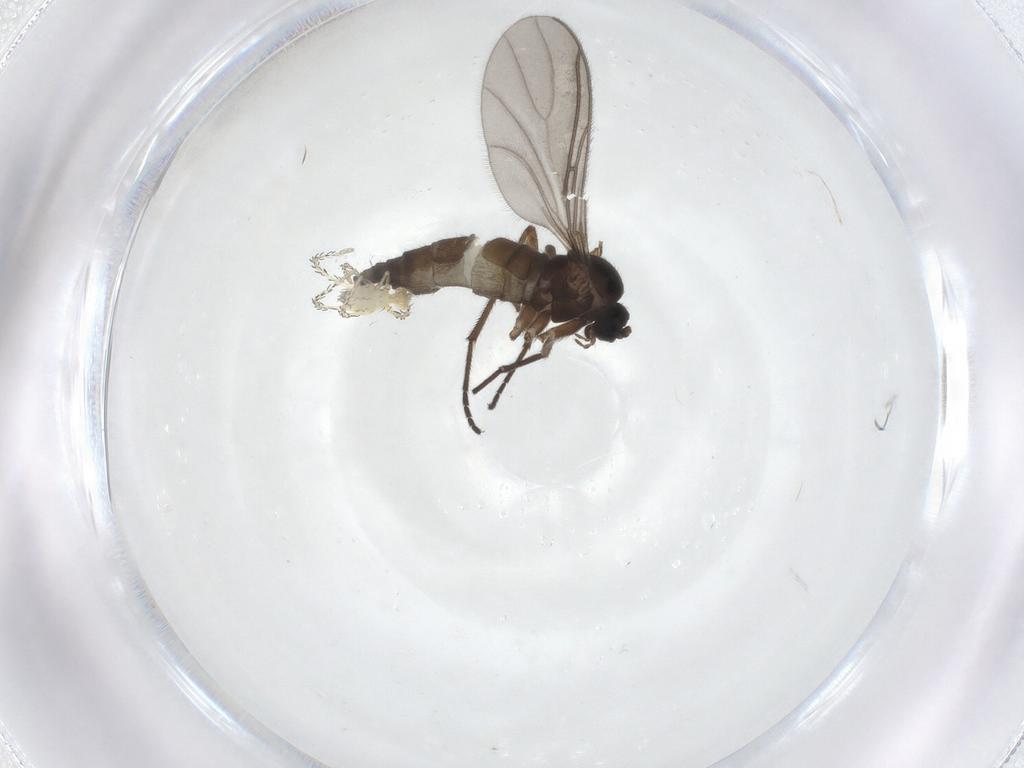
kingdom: Animalia
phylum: Arthropoda
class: Insecta
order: Diptera
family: Sciaridae
